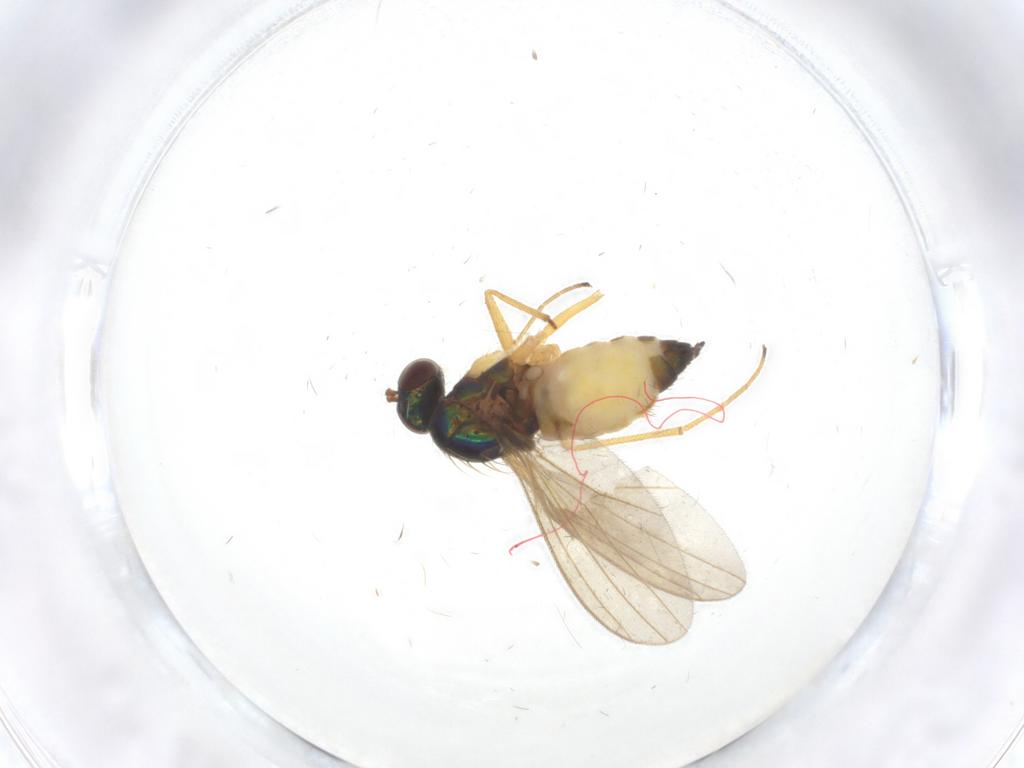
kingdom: Animalia
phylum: Arthropoda
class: Insecta
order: Diptera
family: Dolichopodidae
